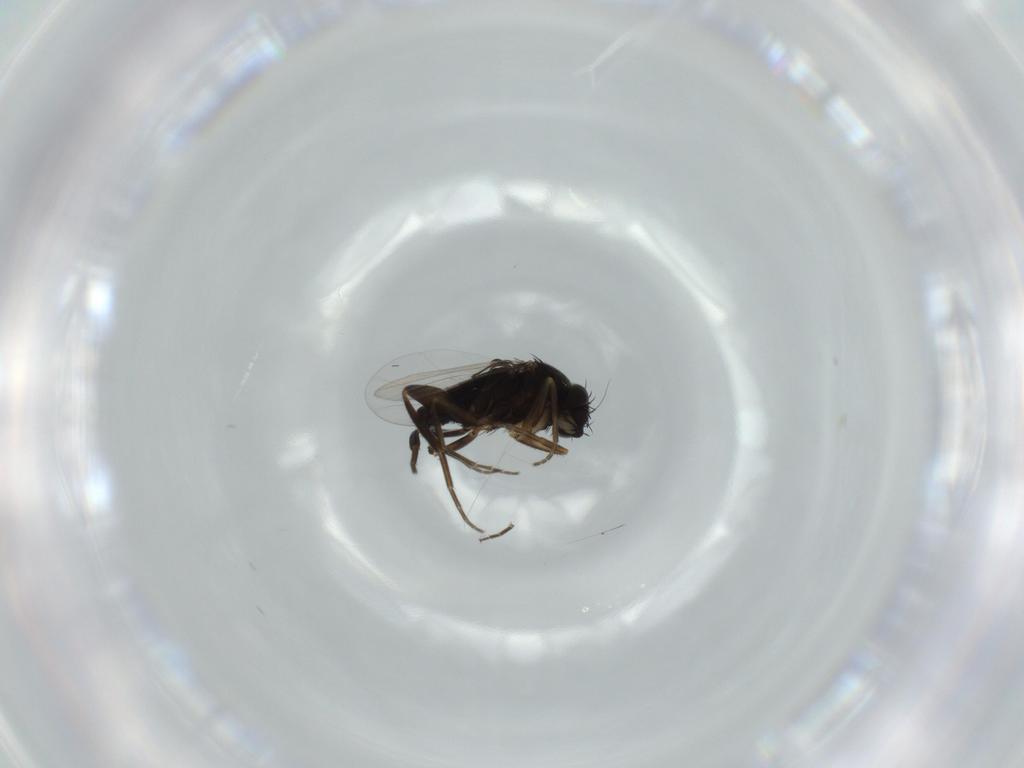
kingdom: Animalia
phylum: Arthropoda
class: Insecta
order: Diptera
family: Phoridae
